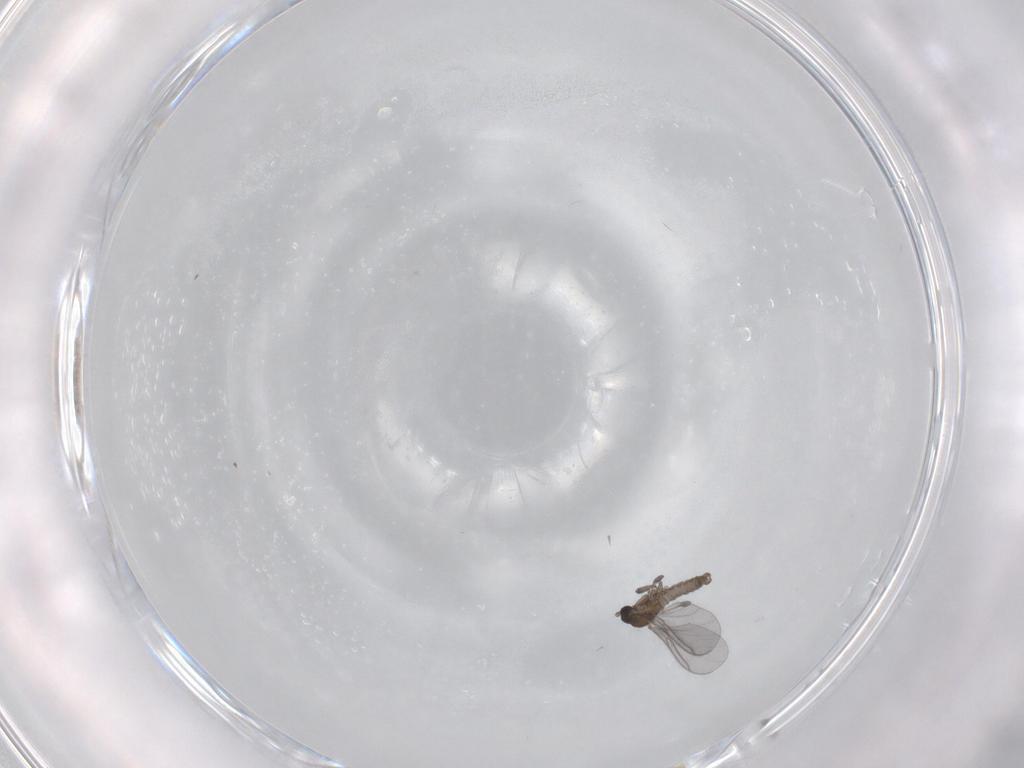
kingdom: Animalia
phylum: Arthropoda
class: Insecta
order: Diptera
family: Sciaridae
